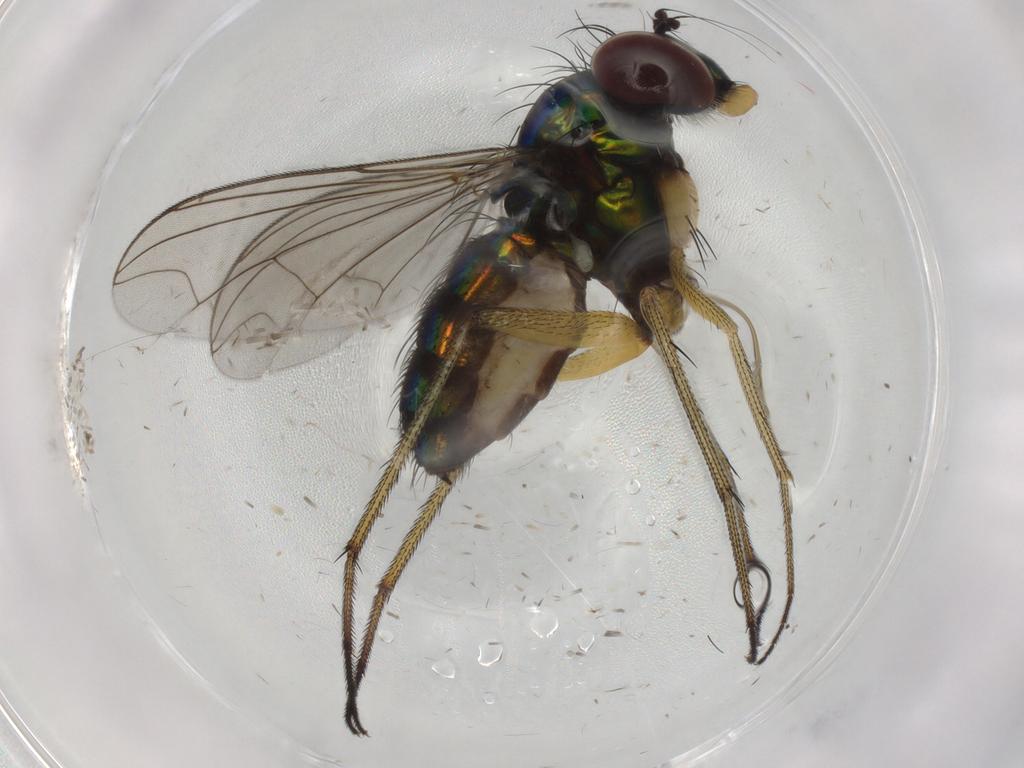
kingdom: Animalia
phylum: Arthropoda
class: Insecta
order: Diptera
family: Dolichopodidae
